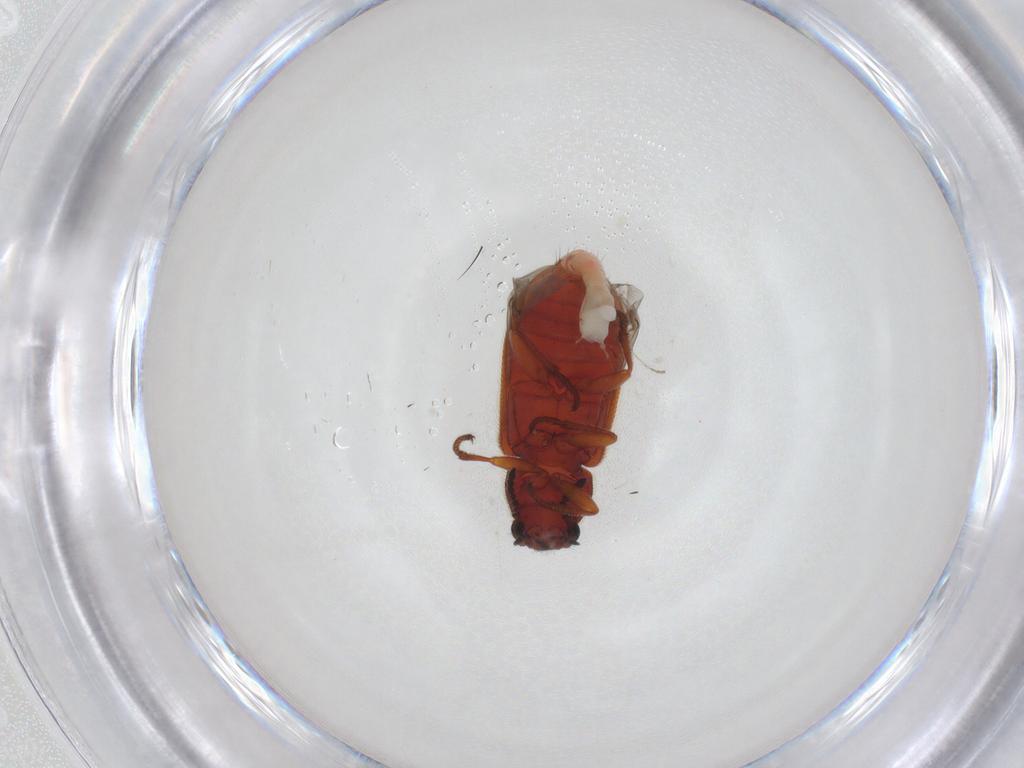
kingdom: Animalia
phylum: Arthropoda
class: Insecta
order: Coleoptera
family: Melyridae
